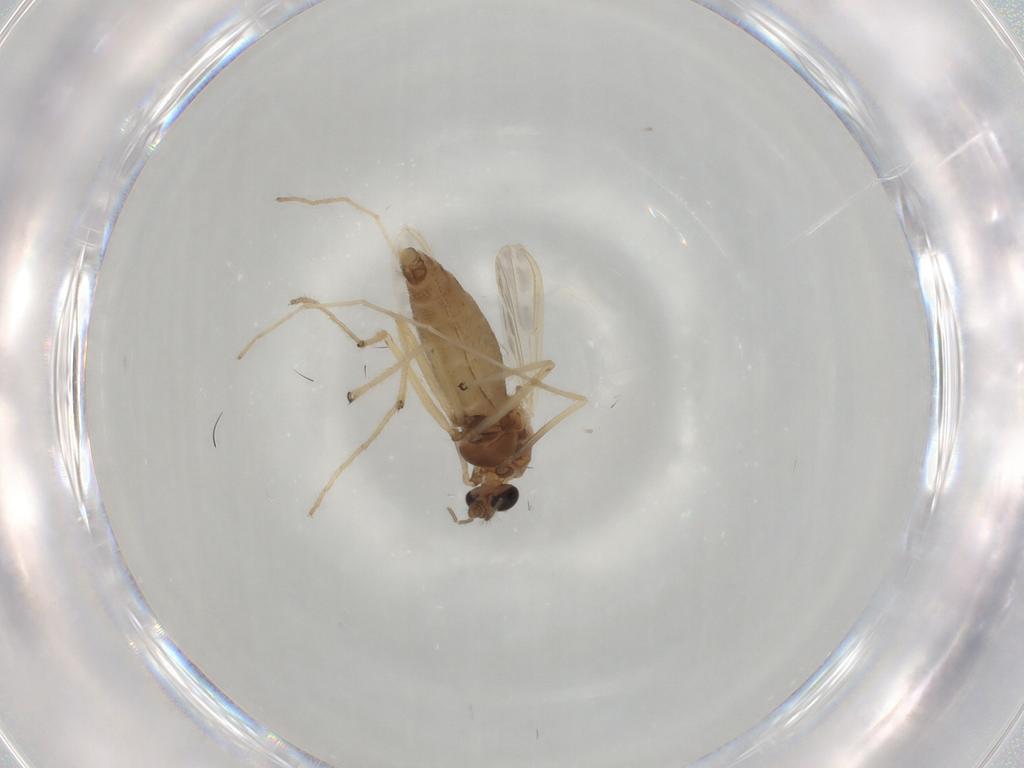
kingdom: Animalia
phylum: Arthropoda
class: Insecta
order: Diptera
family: Chironomidae
